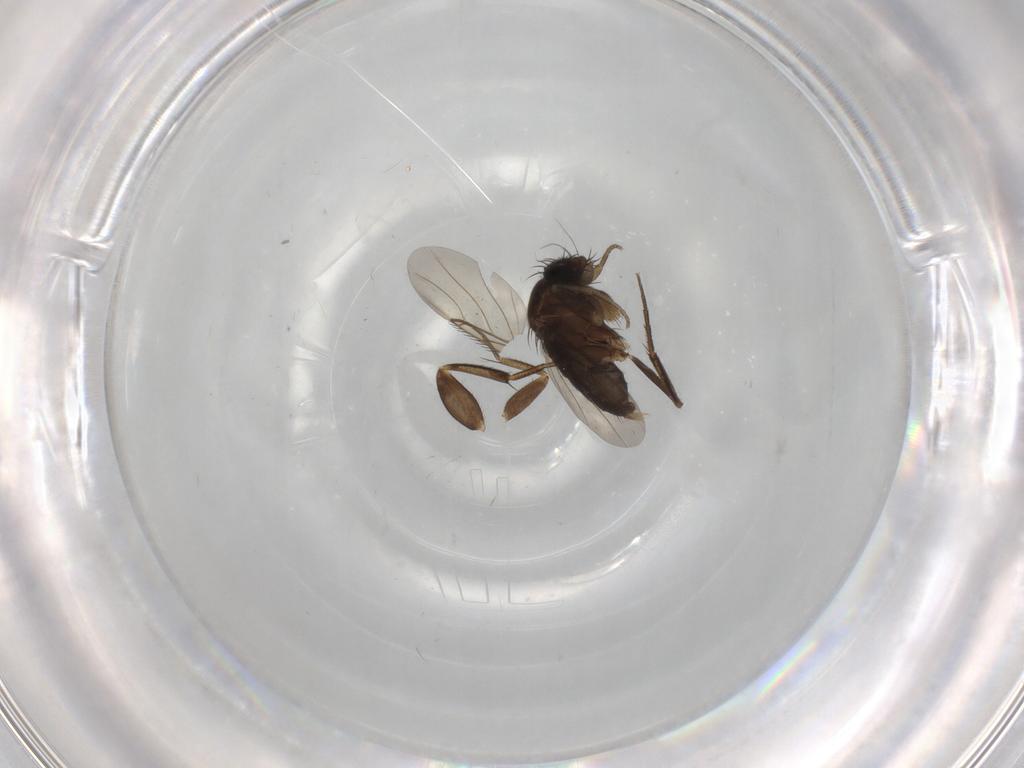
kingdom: Animalia
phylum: Arthropoda
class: Insecta
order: Diptera
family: Phoridae
